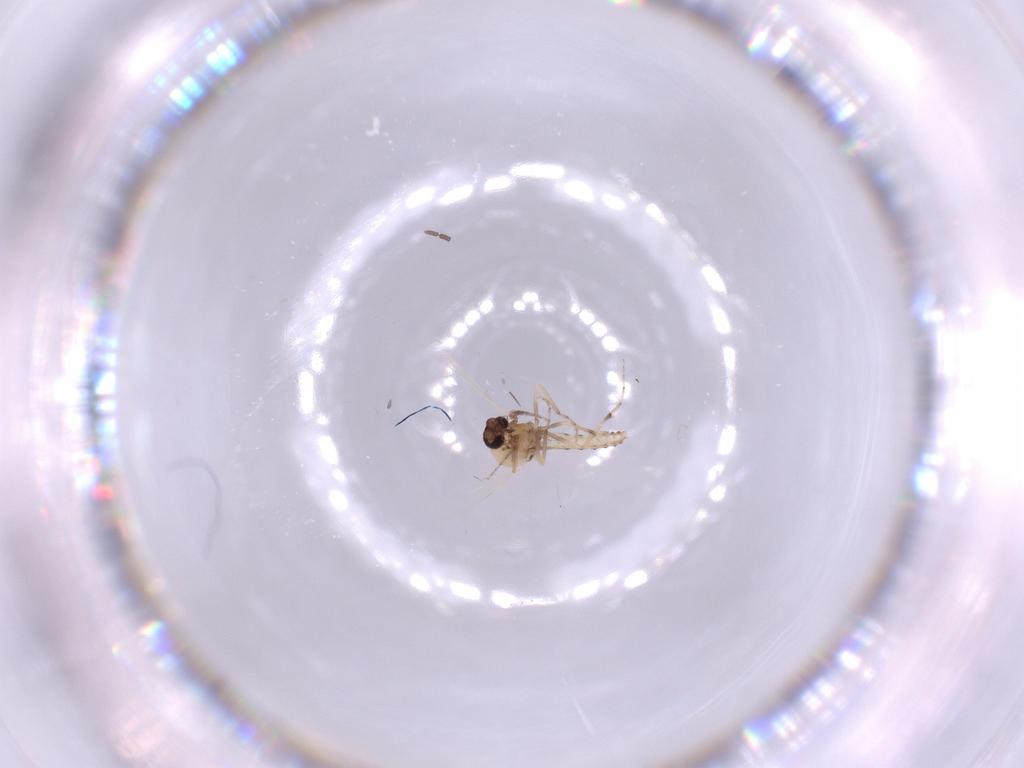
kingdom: Animalia
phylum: Arthropoda
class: Insecta
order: Diptera
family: Ceratopogonidae
